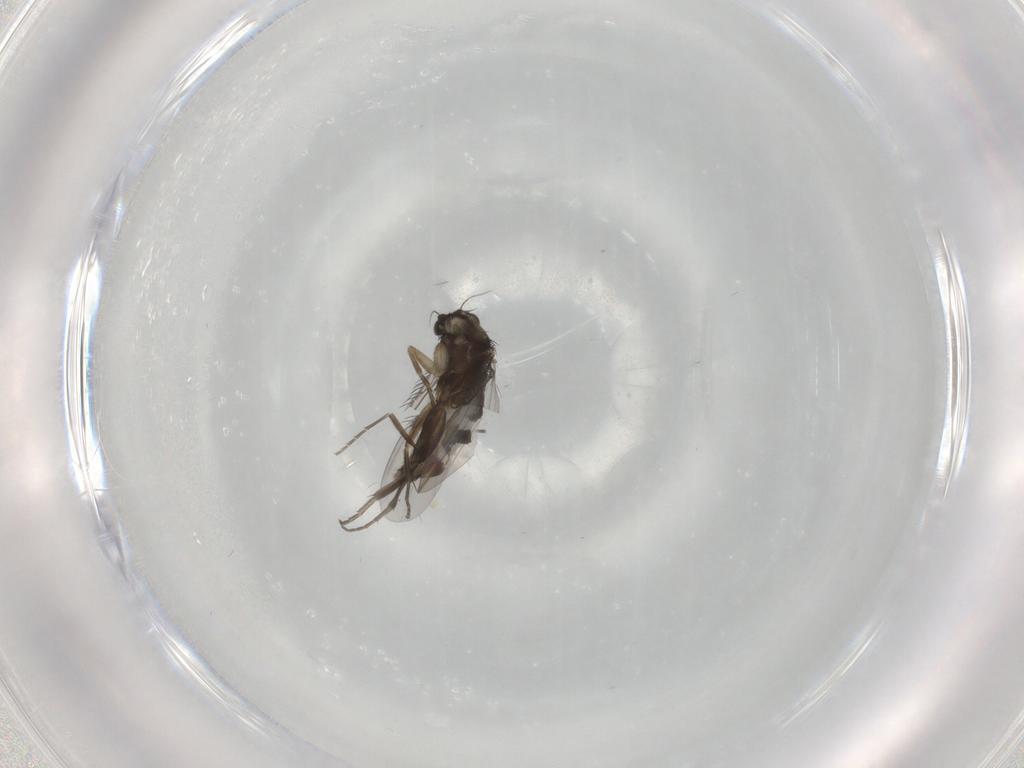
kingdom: Animalia
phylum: Arthropoda
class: Insecta
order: Diptera
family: Phoridae
